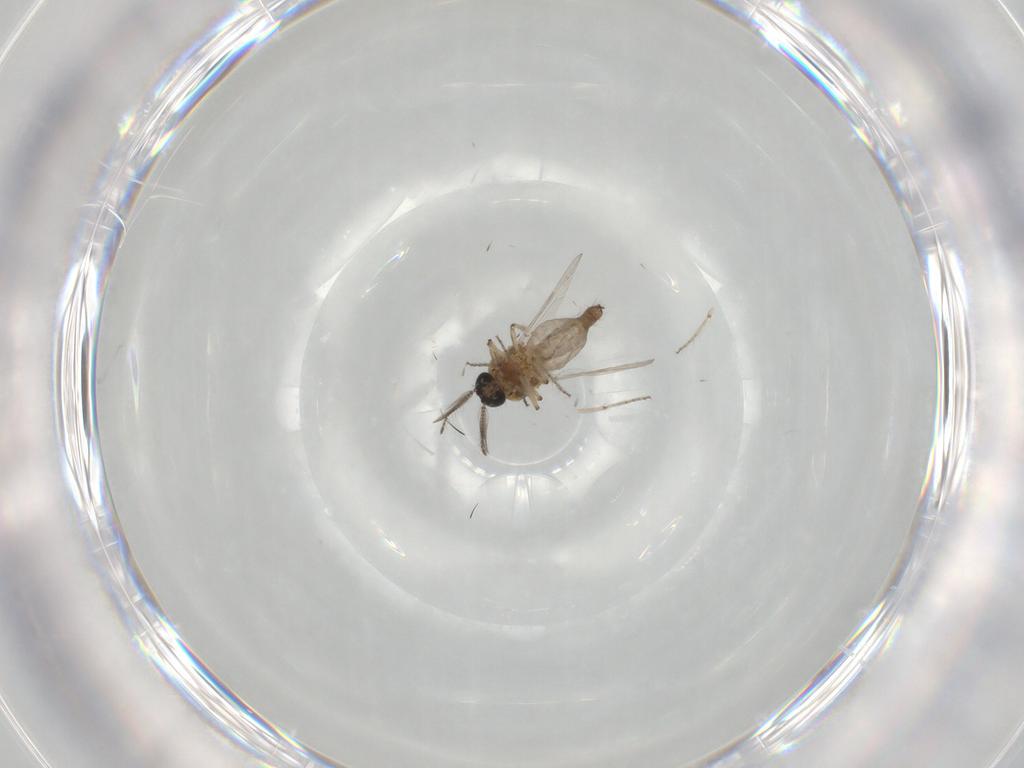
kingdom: Animalia
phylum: Arthropoda
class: Insecta
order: Diptera
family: Ceratopogonidae
